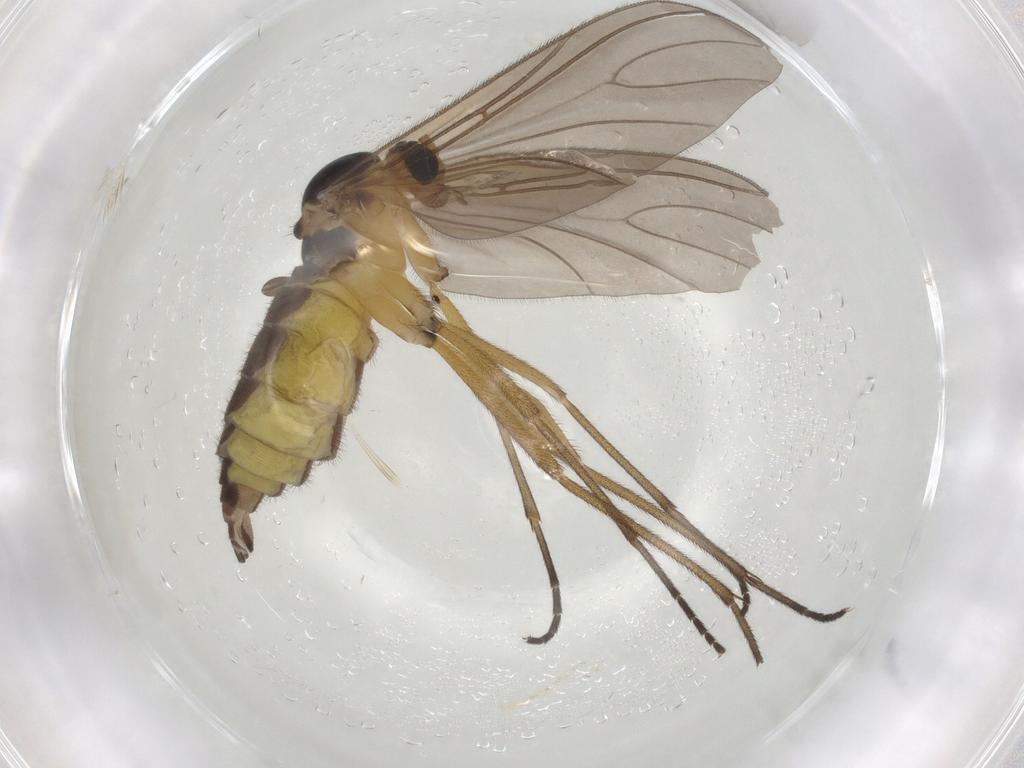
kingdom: Animalia
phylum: Arthropoda
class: Insecta
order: Diptera
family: Sciaridae
